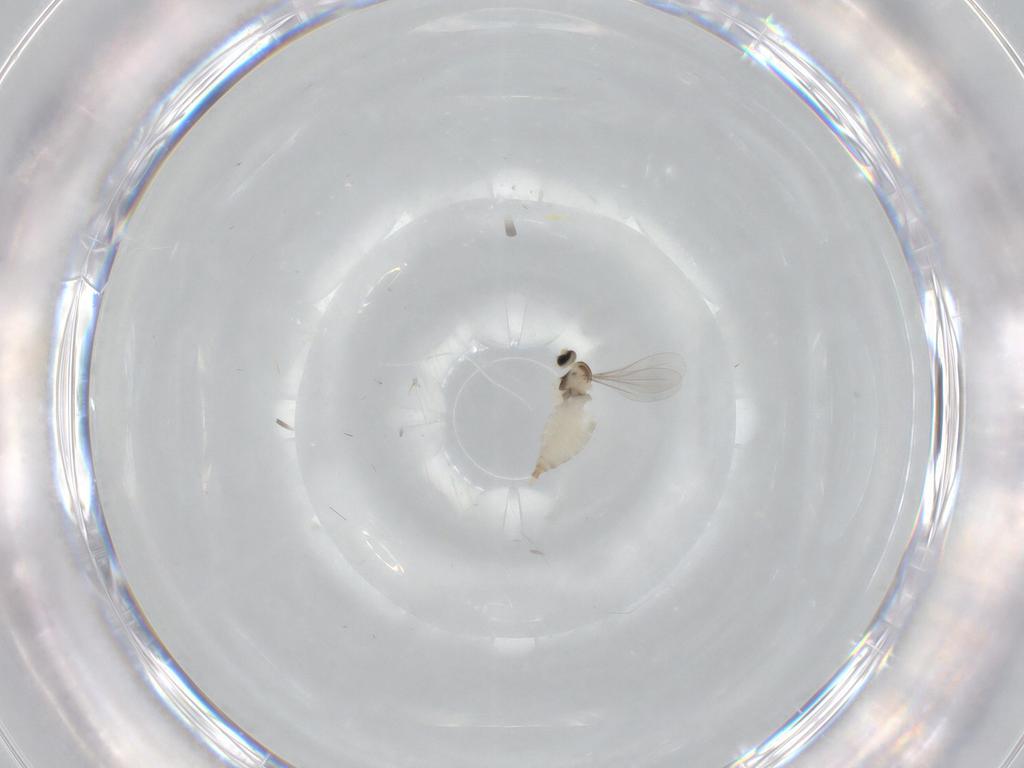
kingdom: Animalia
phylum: Arthropoda
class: Insecta
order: Diptera
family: Cecidomyiidae
